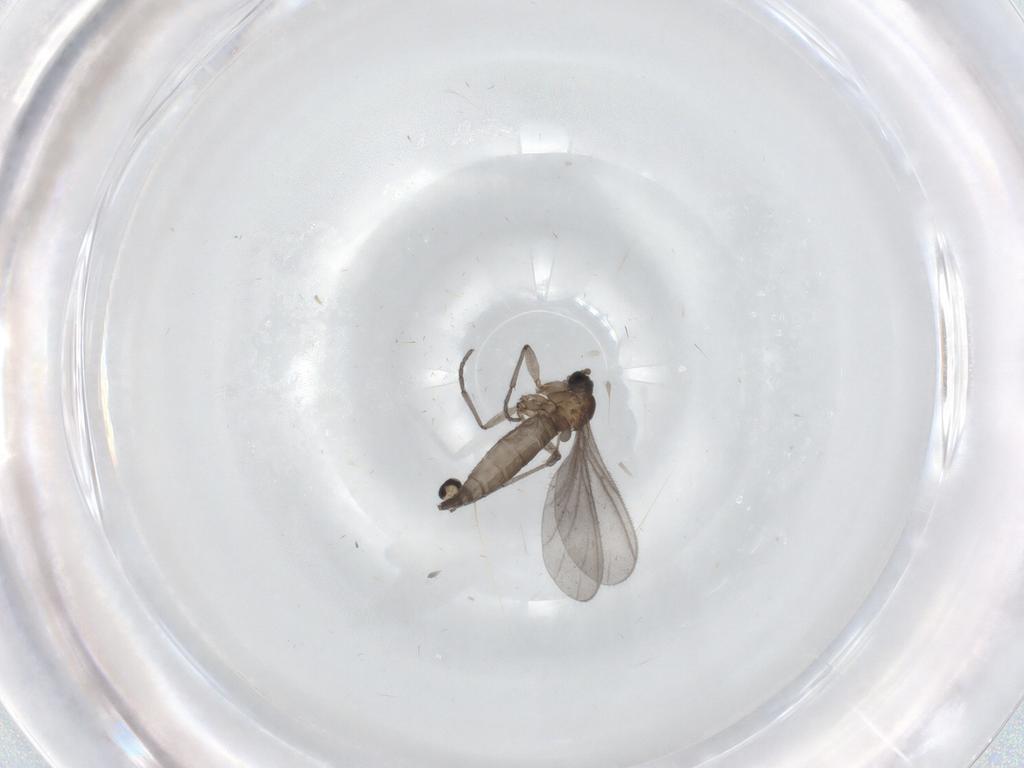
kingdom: Animalia
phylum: Arthropoda
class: Insecta
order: Diptera
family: Sciaridae
